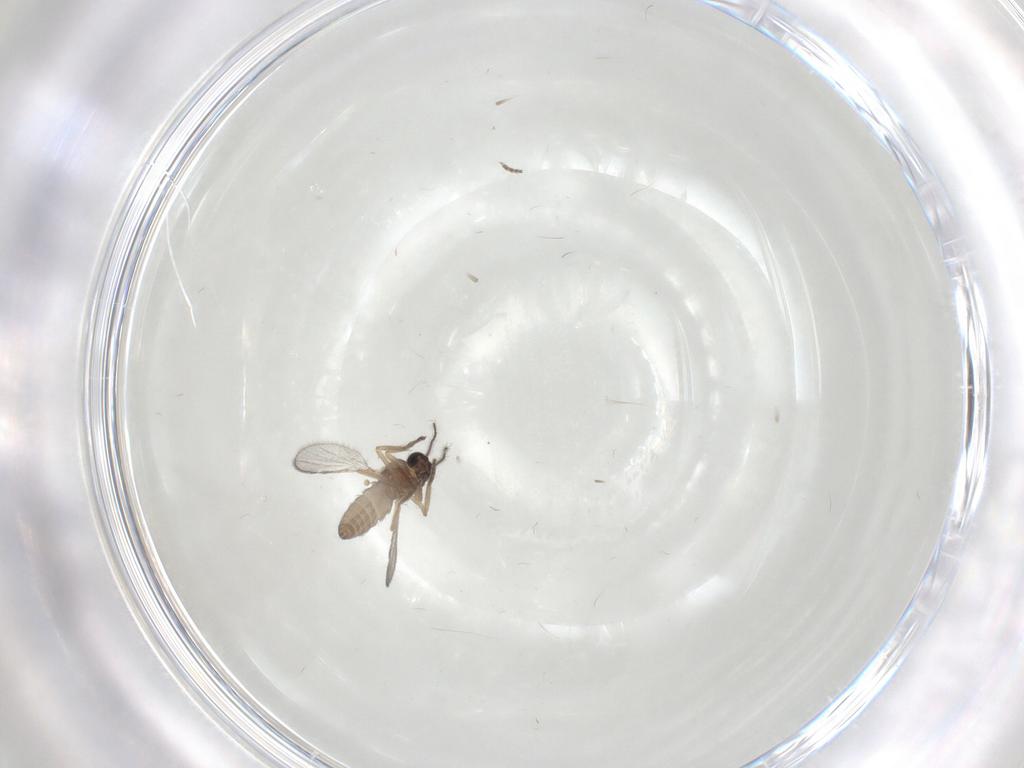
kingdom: Animalia
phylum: Arthropoda
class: Insecta
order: Diptera
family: Ceratopogonidae
